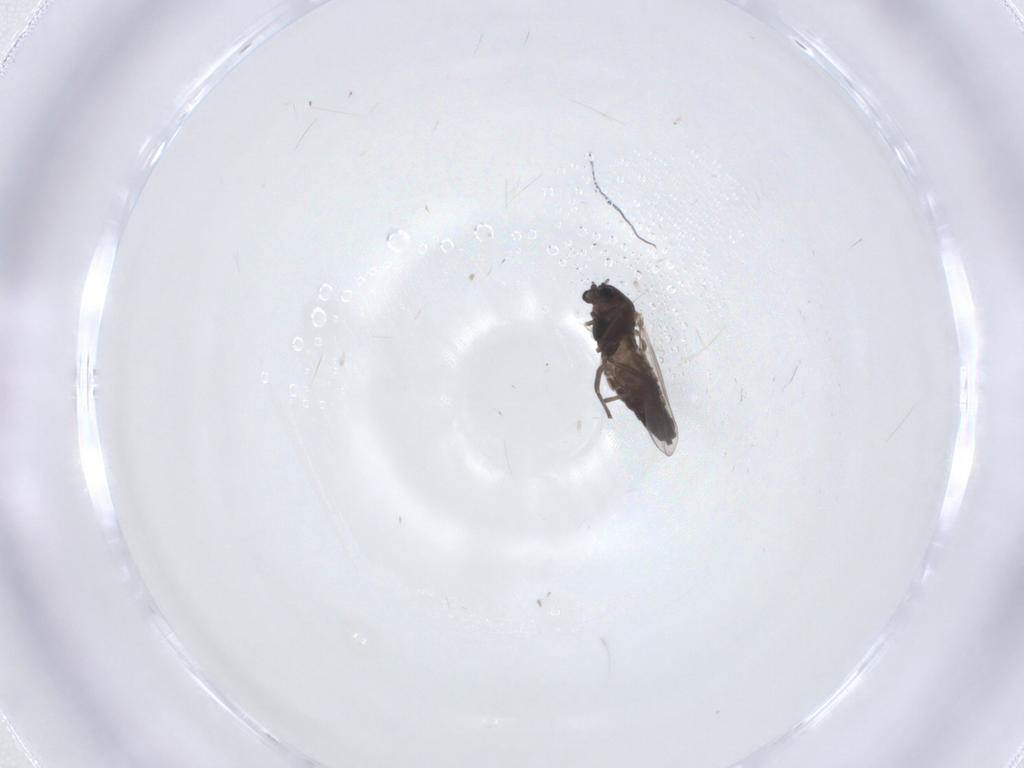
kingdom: Animalia
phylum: Arthropoda
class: Insecta
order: Diptera
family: Chironomidae
